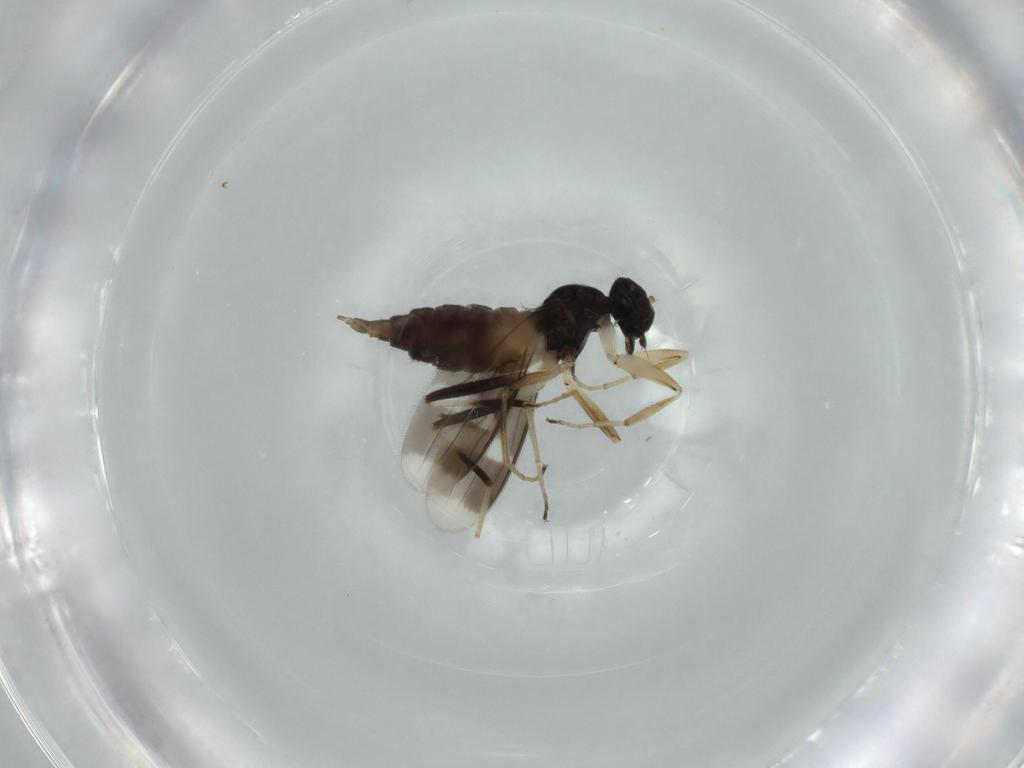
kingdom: Animalia
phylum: Arthropoda
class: Insecta
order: Diptera
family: Hybotidae
